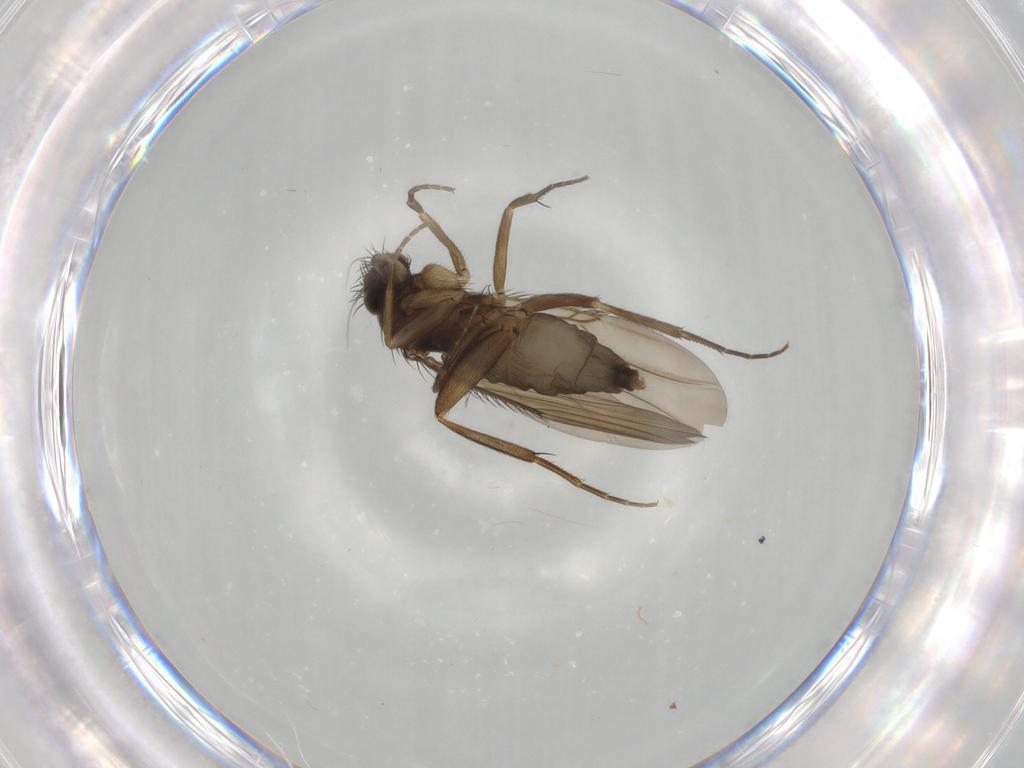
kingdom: Animalia
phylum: Arthropoda
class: Insecta
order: Diptera
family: Phoridae
